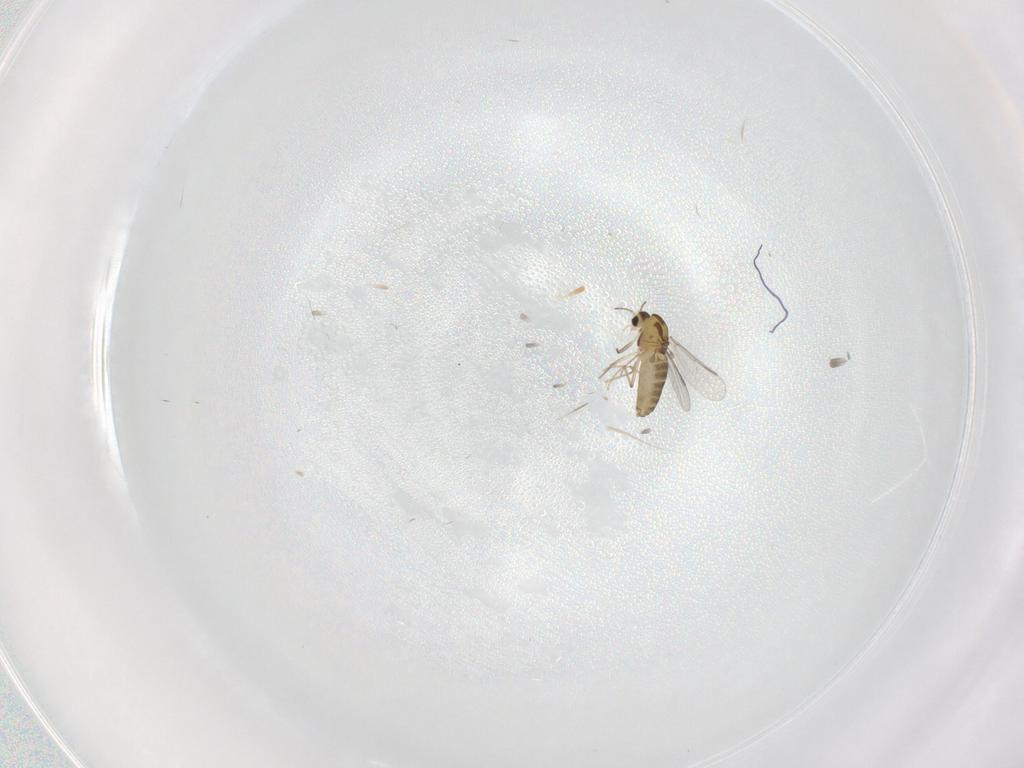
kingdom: Animalia
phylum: Arthropoda
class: Insecta
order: Diptera
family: Chironomidae
